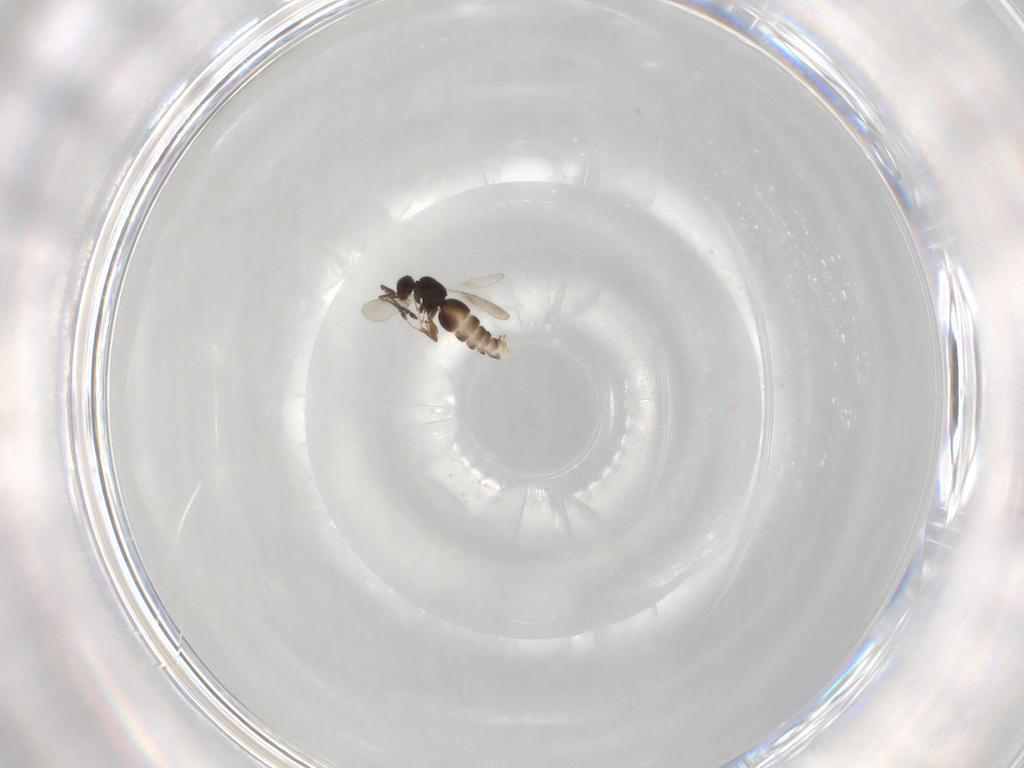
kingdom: Animalia
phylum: Arthropoda
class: Insecta
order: Hymenoptera
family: Ceraphronidae
